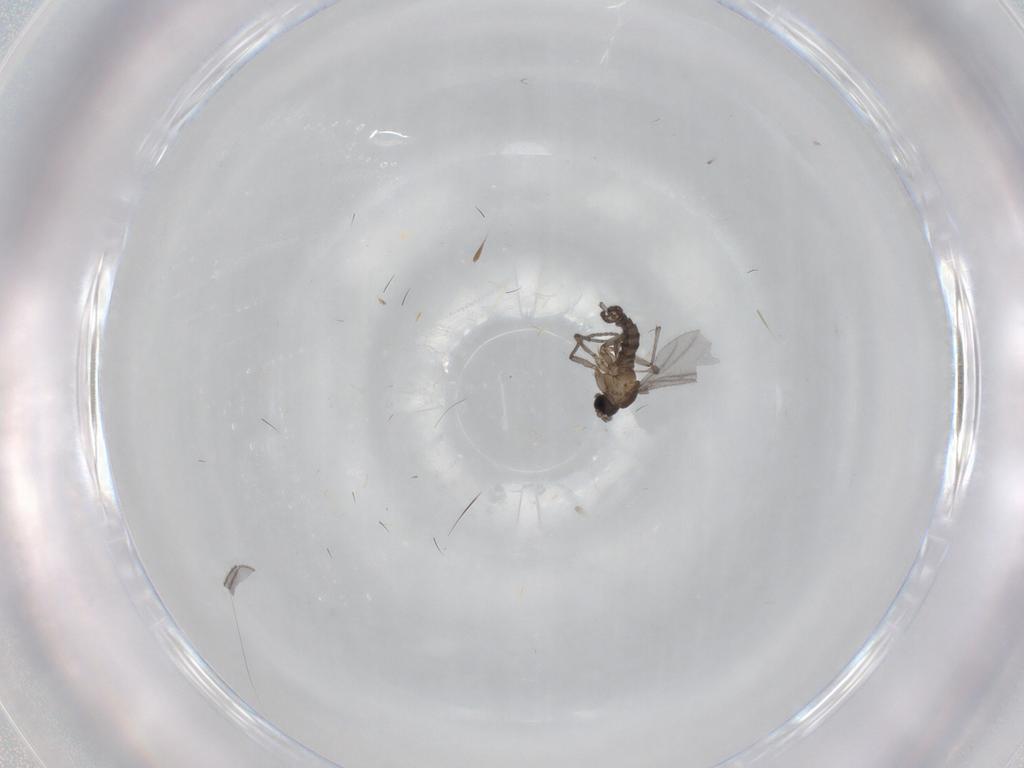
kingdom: Animalia
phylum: Arthropoda
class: Insecta
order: Diptera
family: Sciaridae
